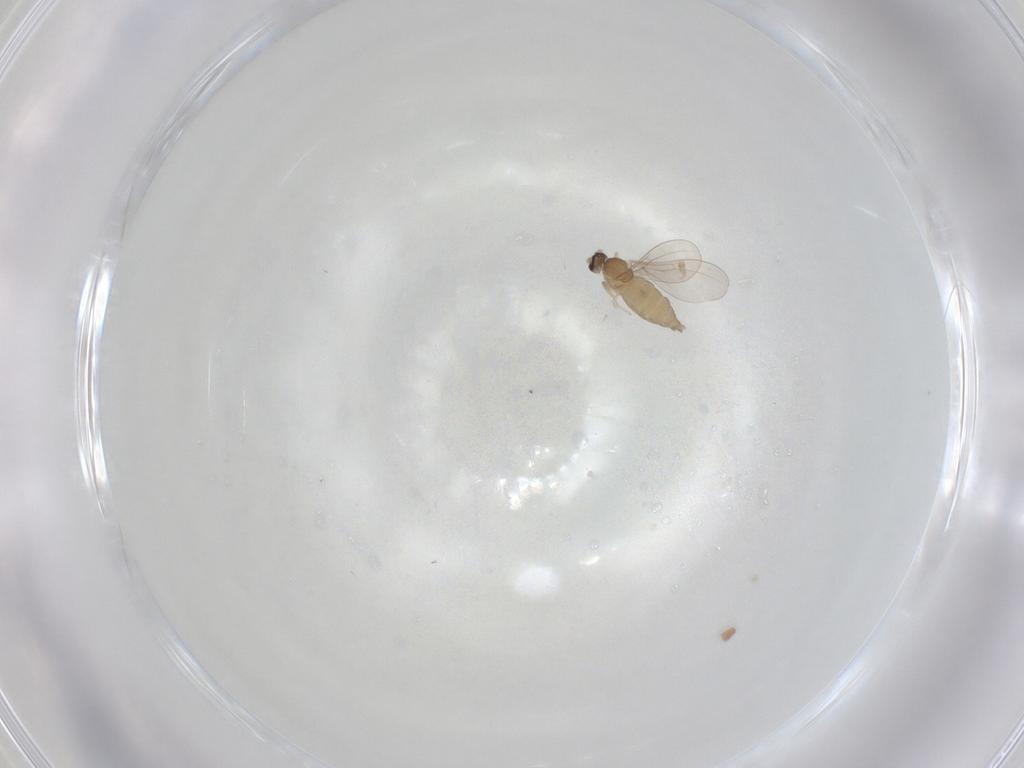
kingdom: Animalia
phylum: Arthropoda
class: Insecta
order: Diptera
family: Cecidomyiidae
